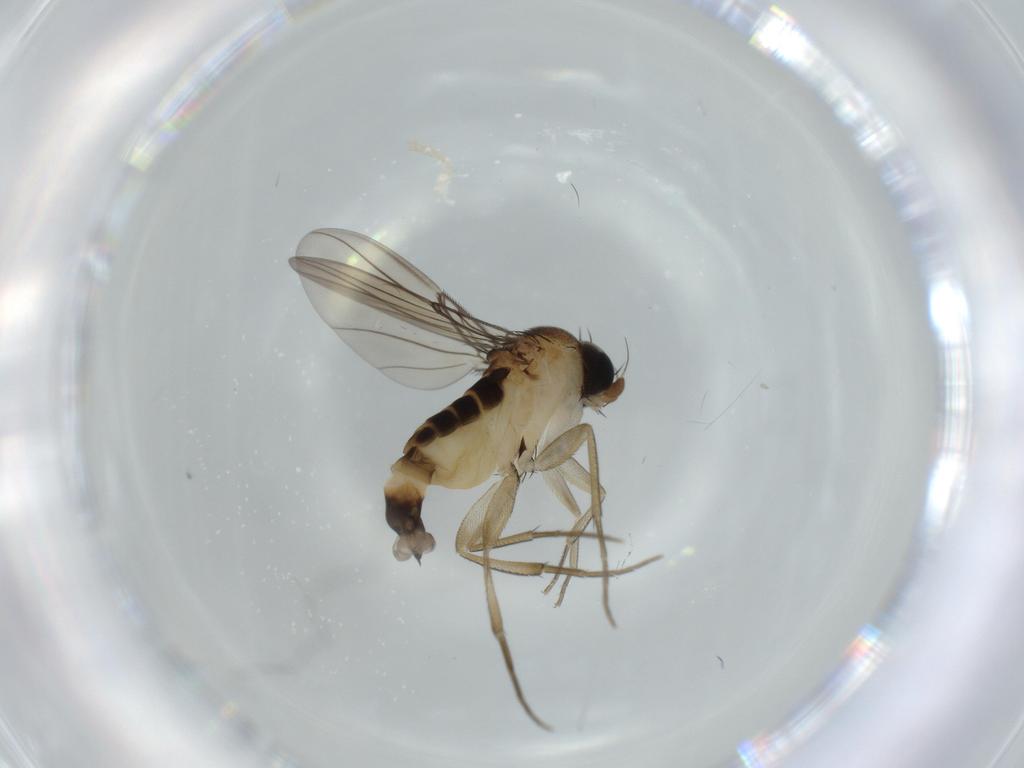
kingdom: Animalia
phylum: Arthropoda
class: Insecta
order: Diptera
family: Phoridae
